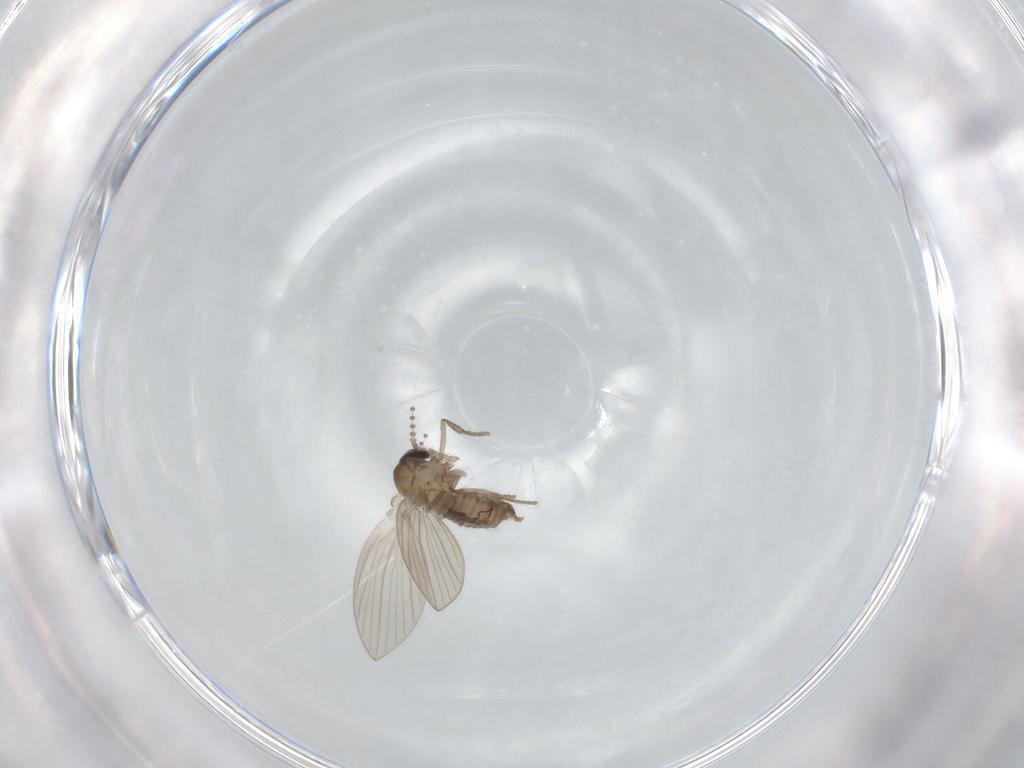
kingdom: Animalia
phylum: Arthropoda
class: Insecta
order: Diptera
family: Psychodidae
